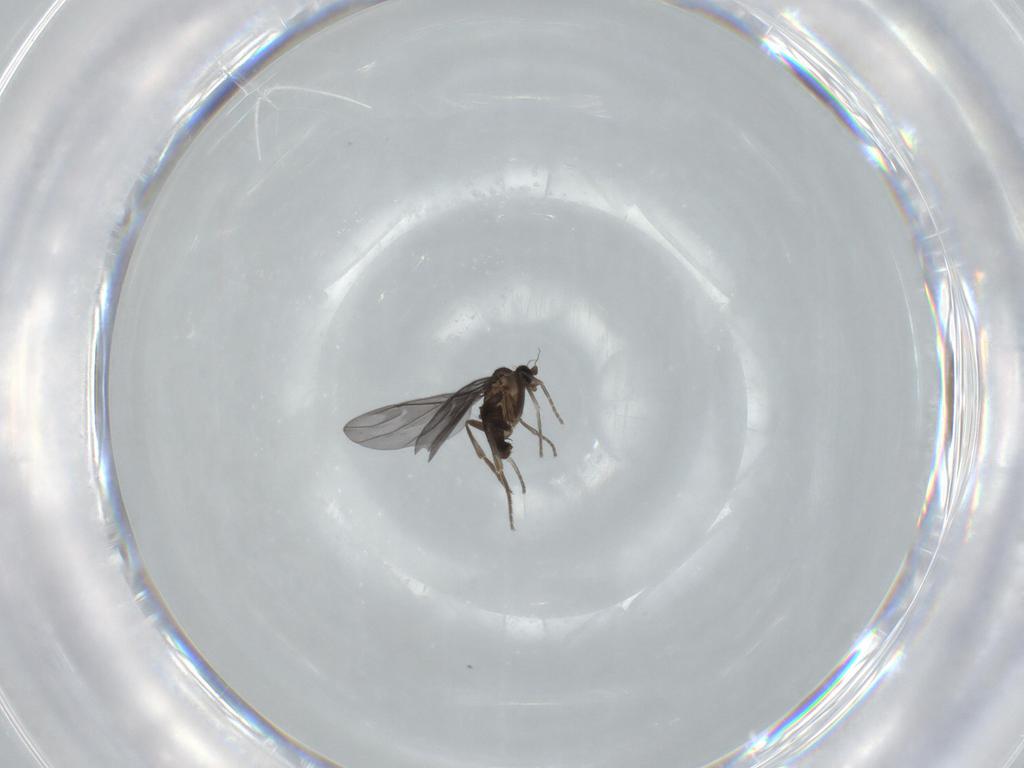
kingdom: Animalia
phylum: Arthropoda
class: Insecta
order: Diptera
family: Phoridae
